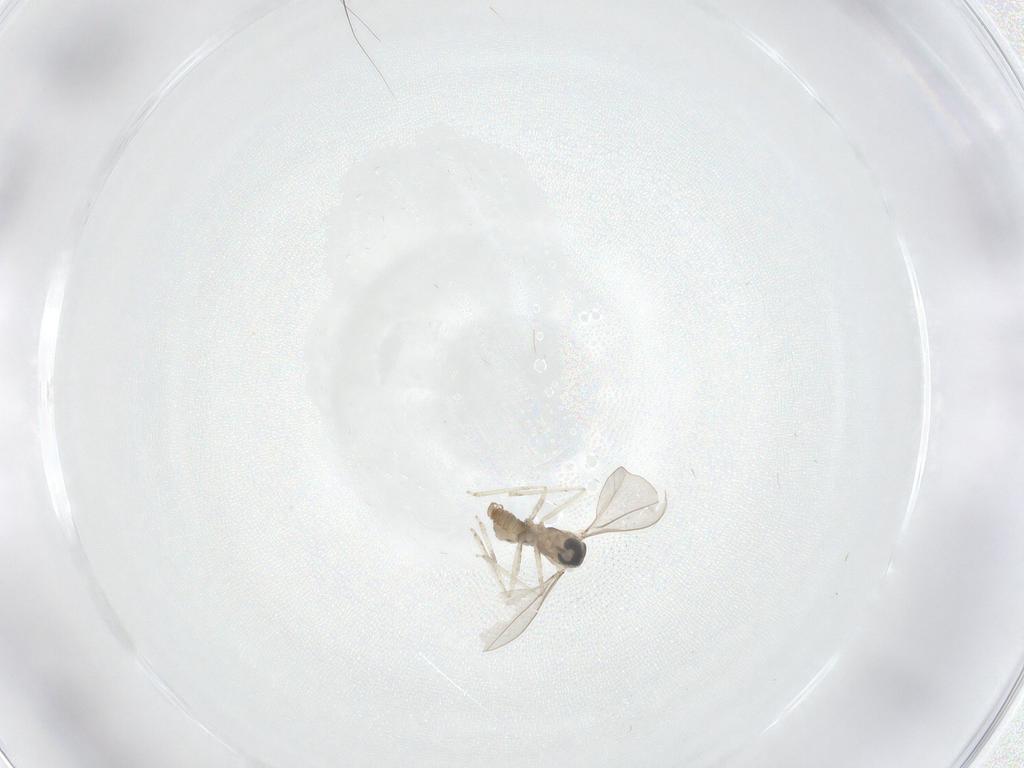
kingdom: Animalia
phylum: Arthropoda
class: Insecta
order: Diptera
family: Cecidomyiidae
